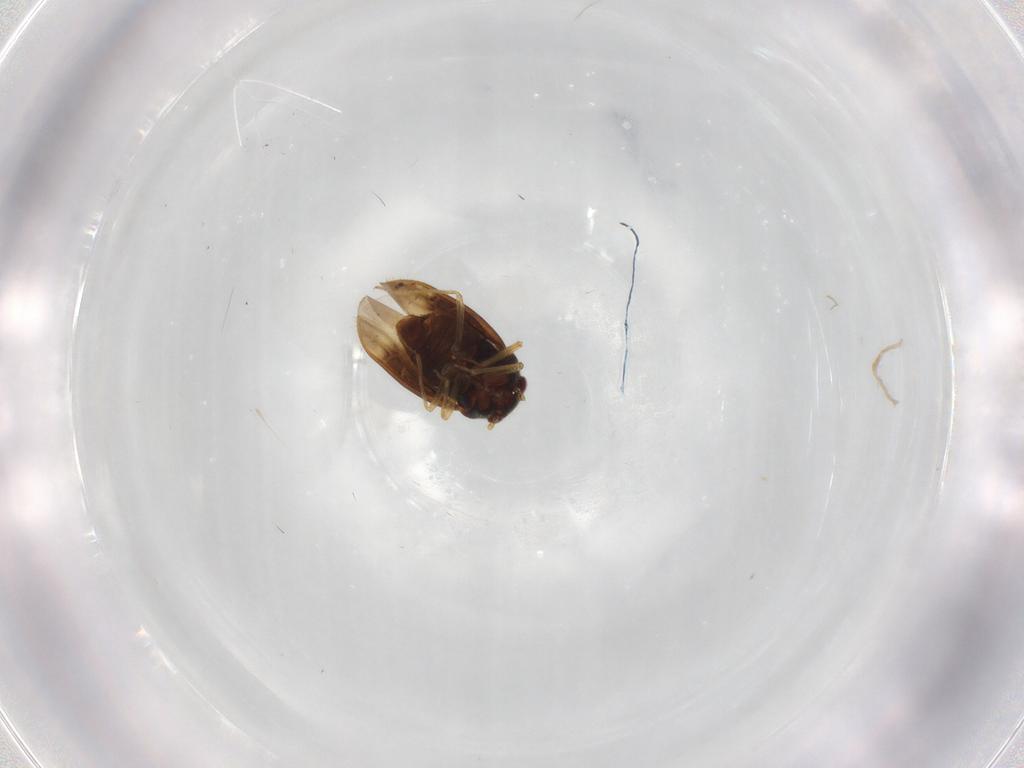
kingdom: Animalia
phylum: Arthropoda
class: Insecta
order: Hemiptera
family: Schizopteridae
